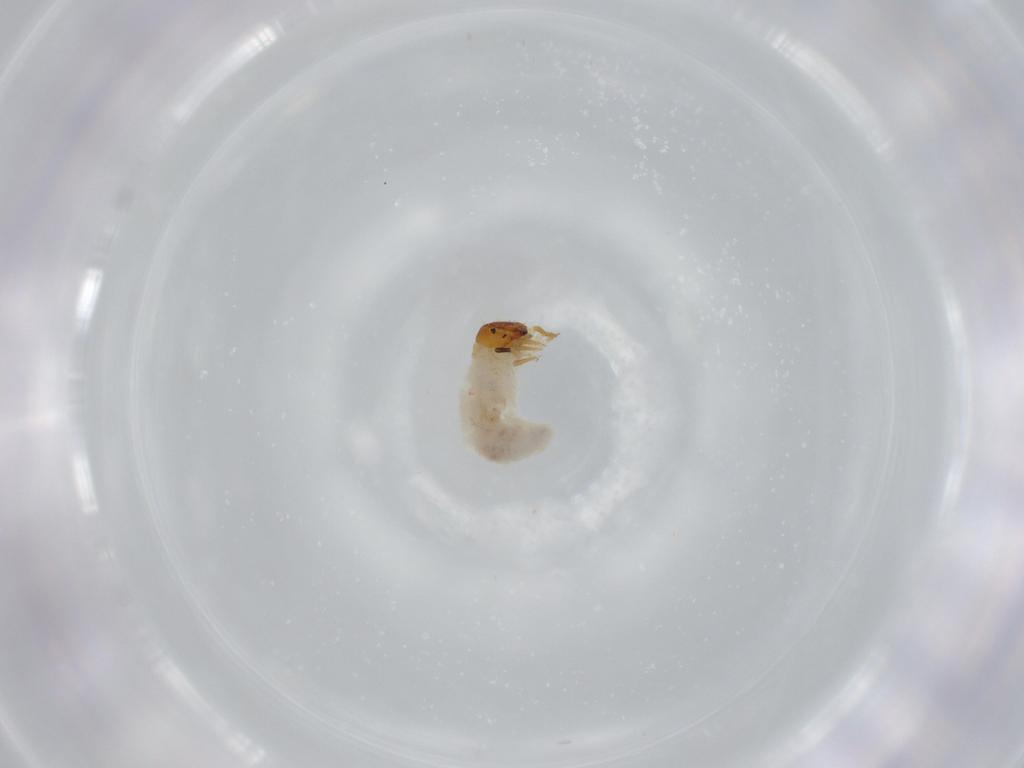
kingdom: Animalia
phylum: Arthropoda
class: Insecta
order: Coleoptera
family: Chrysomelidae
